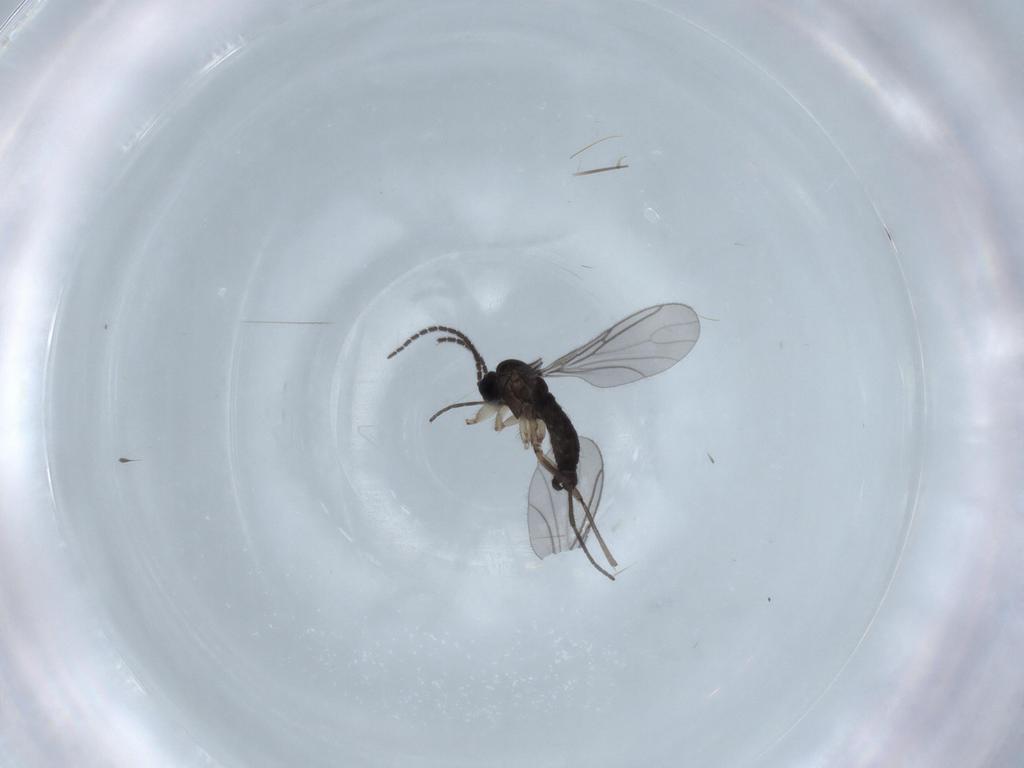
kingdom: Animalia
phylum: Arthropoda
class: Insecta
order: Diptera
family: Sciaridae
